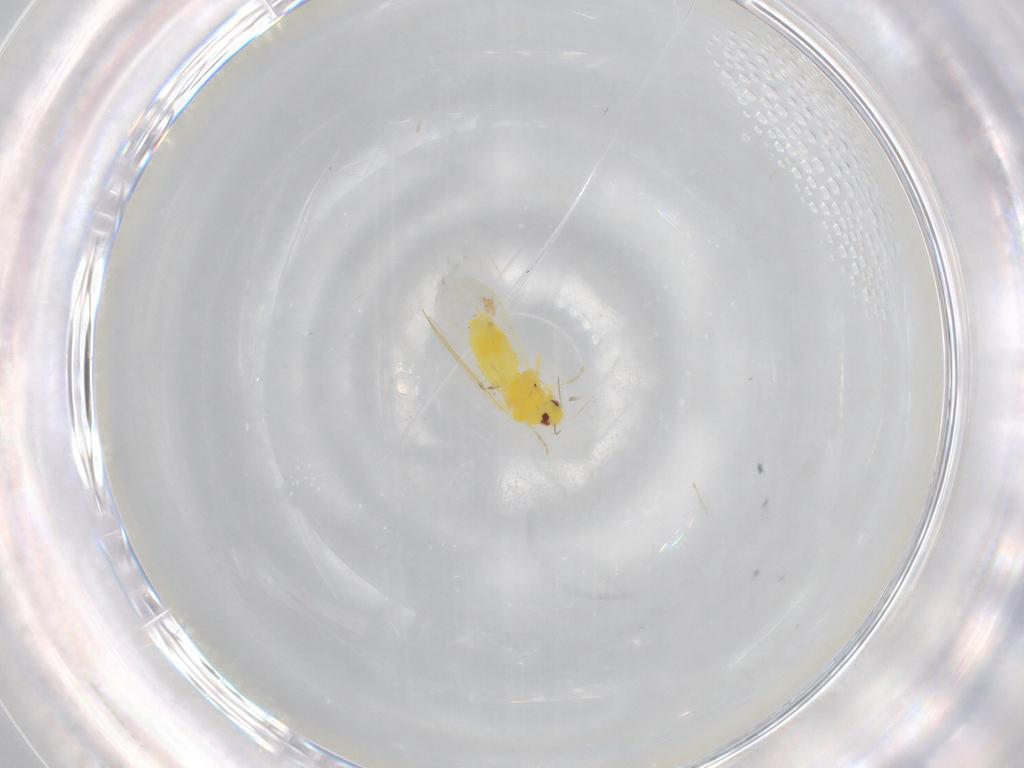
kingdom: Animalia
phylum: Arthropoda
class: Insecta
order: Hemiptera
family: Aleyrodidae
